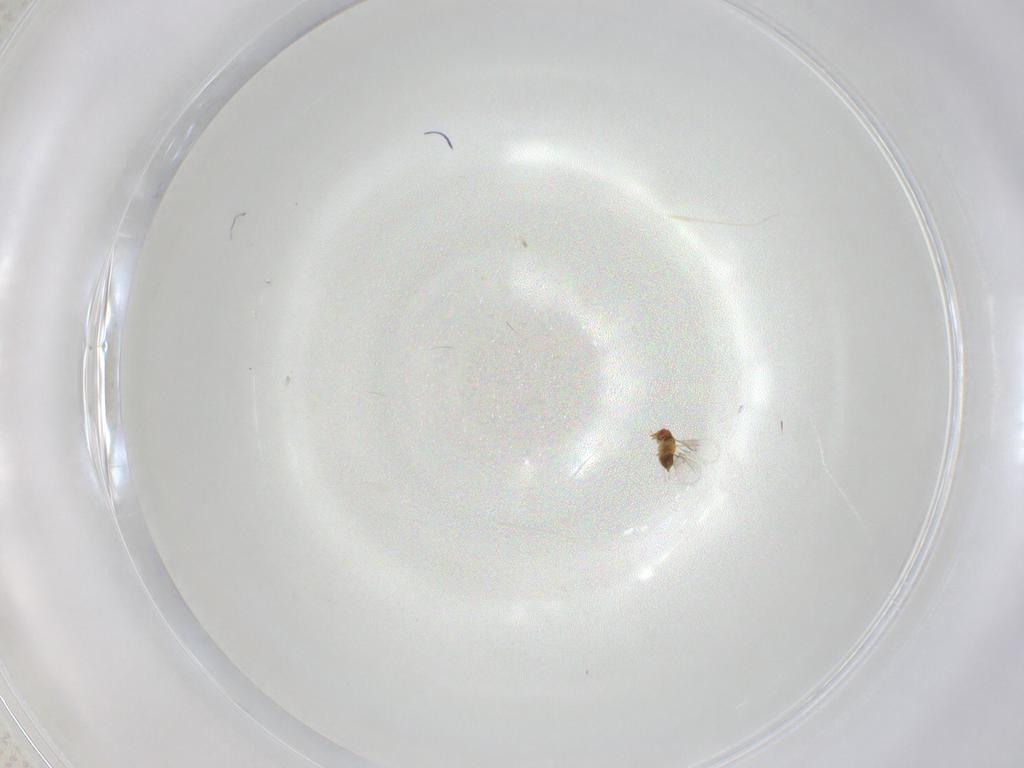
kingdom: Animalia
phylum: Arthropoda
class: Insecta
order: Hymenoptera
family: Trichogrammatidae
